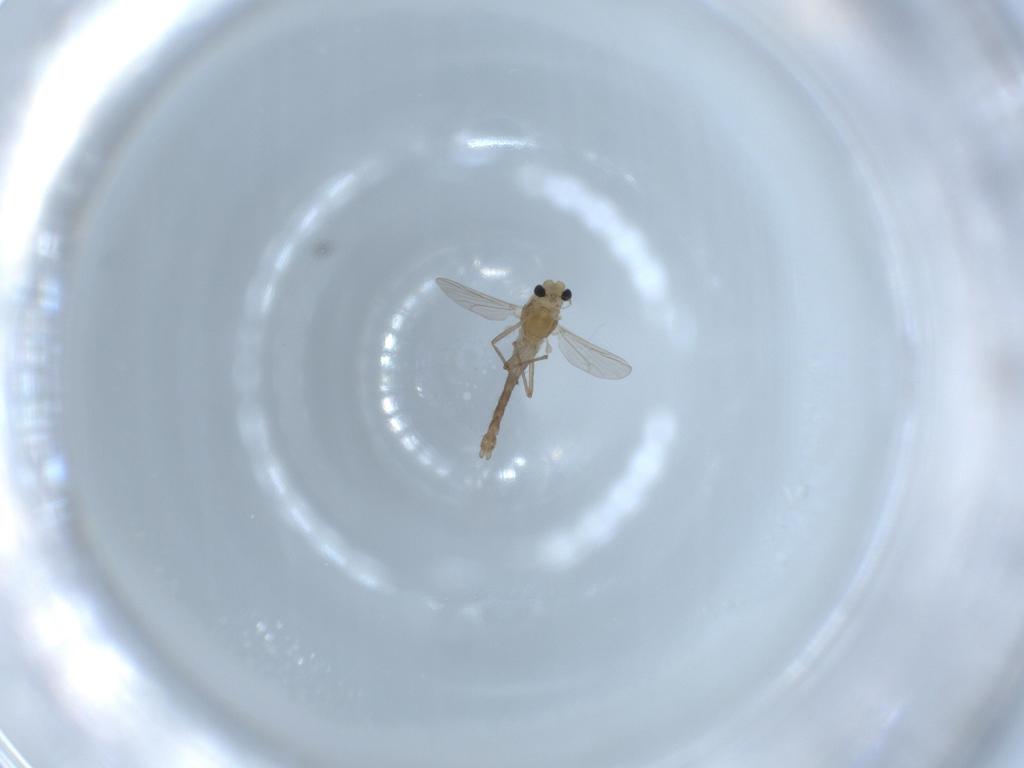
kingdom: Animalia
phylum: Arthropoda
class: Insecta
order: Diptera
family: Chironomidae
